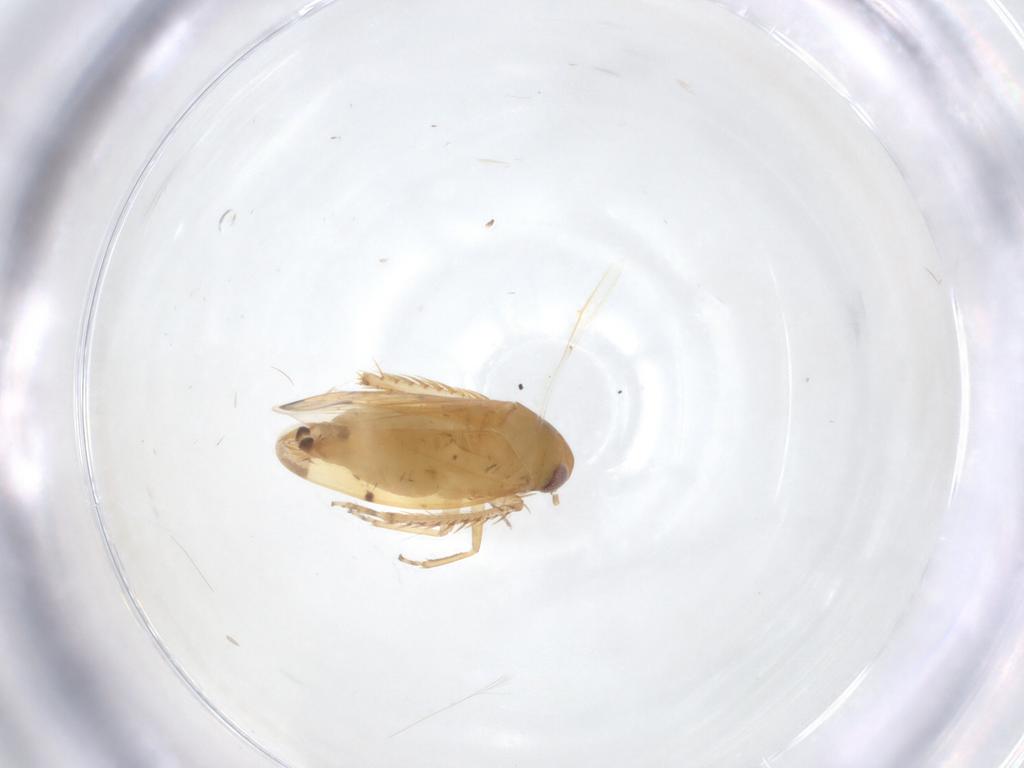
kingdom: Animalia
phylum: Arthropoda
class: Insecta
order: Hemiptera
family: Cicadellidae
